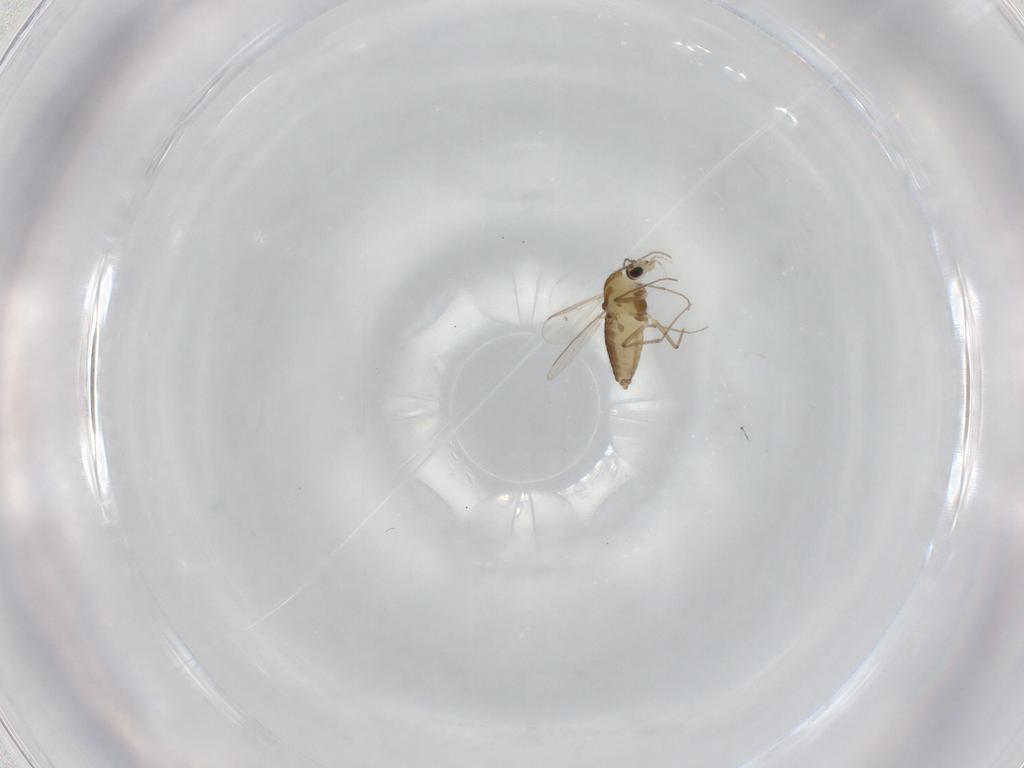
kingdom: Animalia
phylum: Arthropoda
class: Insecta
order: Diptera
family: Chironomidae
